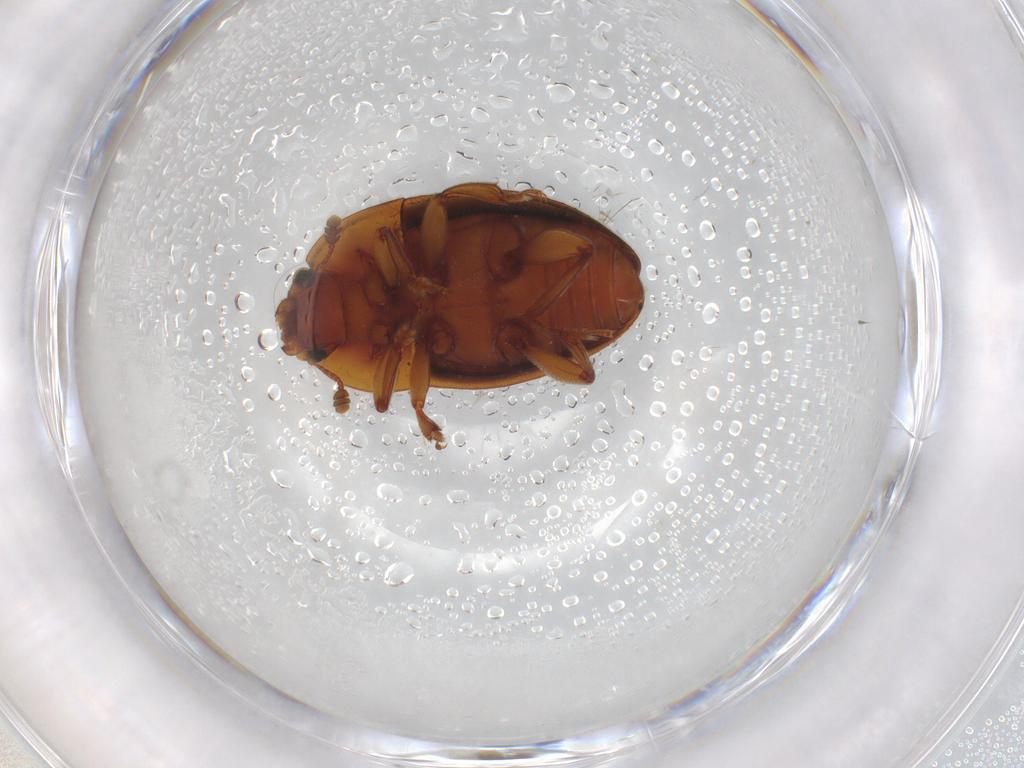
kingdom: Animalia
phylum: Arthropoda
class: Insecta
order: Coleoptera
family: Nitidulidae
